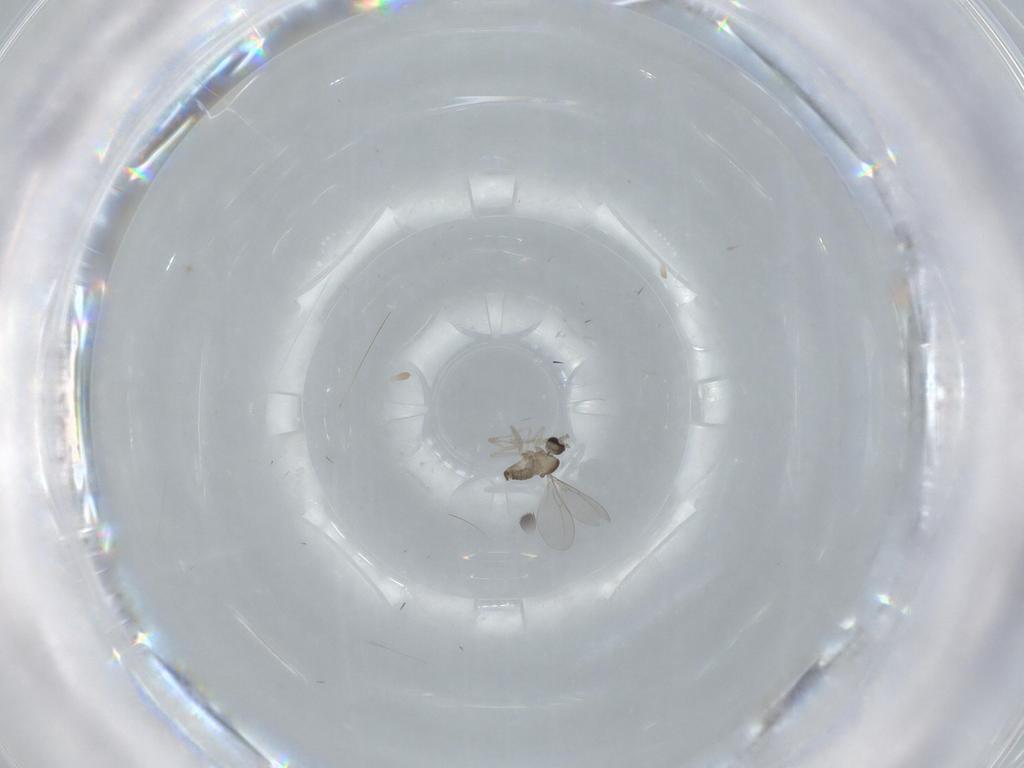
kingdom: Animalia
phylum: Arthropoda
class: Insecta
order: Diptera
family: Cecidomyiidae
